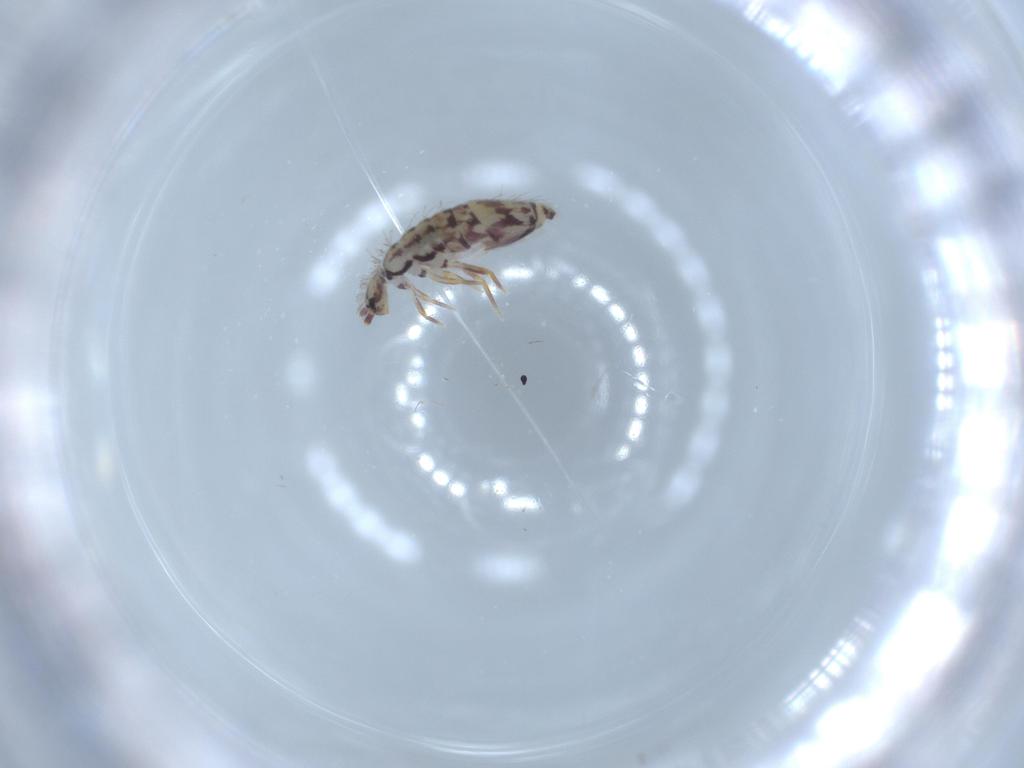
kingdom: Animalia
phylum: Arthropoda
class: Collembola
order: Entomobryomorpha
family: Entomobryidae
